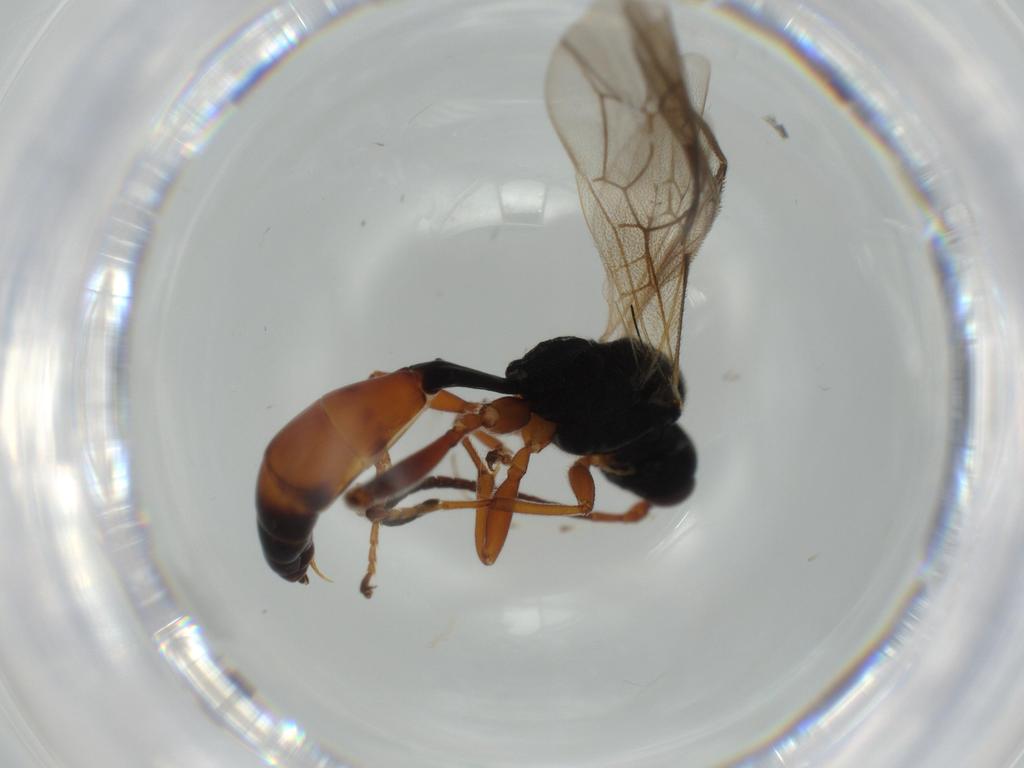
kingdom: Animalia
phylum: Arthropoda
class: Insecta
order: Hymenoptera
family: Ichneumonidae
